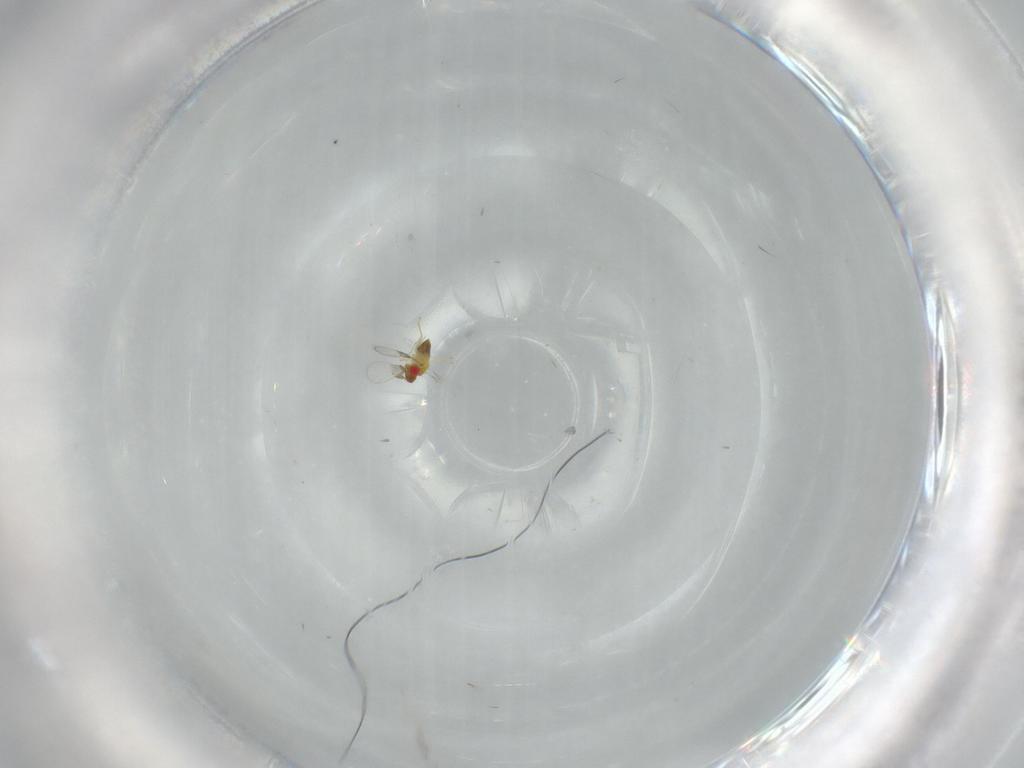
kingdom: Animalia
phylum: Arthropoda
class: Insecta
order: Hymenoptera
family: Trichogrammatidae
